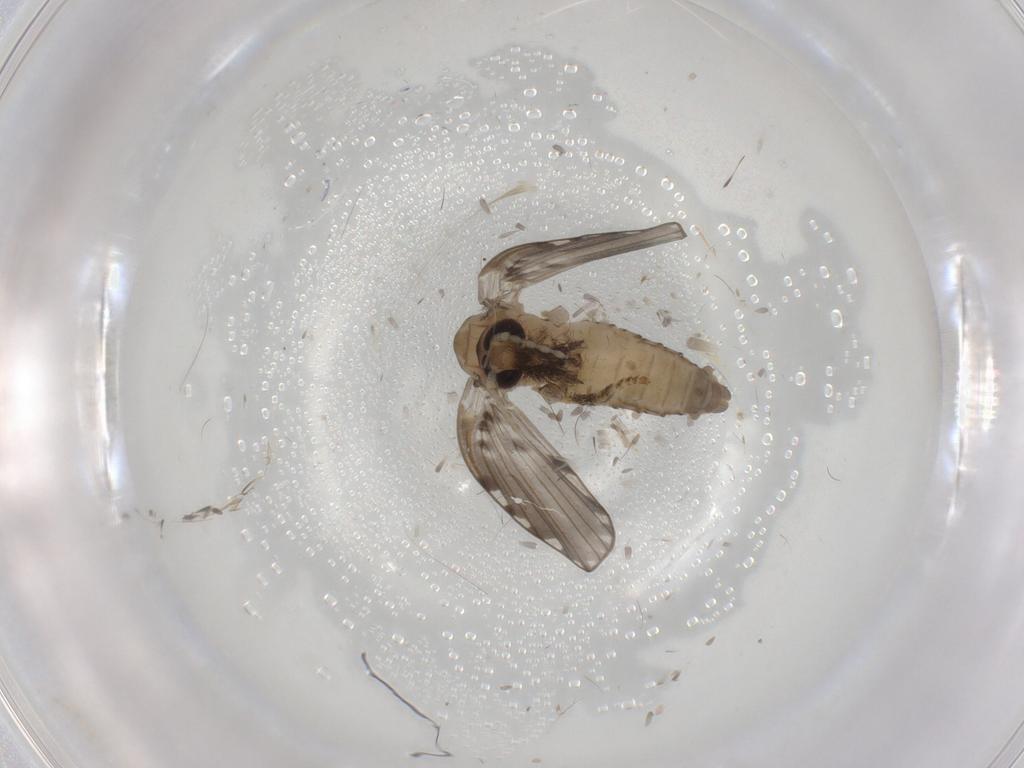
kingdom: Animalia
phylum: Arthropoda
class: Insecta
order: Diptera
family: Psychodidae
